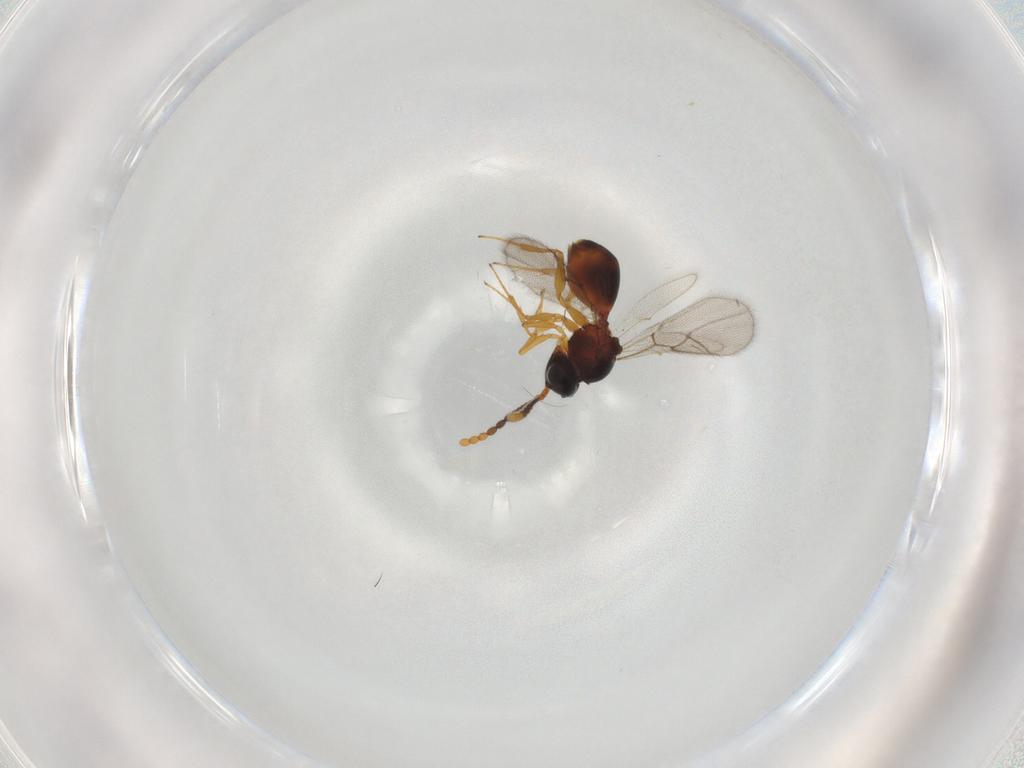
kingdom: Animalia
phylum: Arthropoda
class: Insecta
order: Hymenoptera
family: Figitidae
